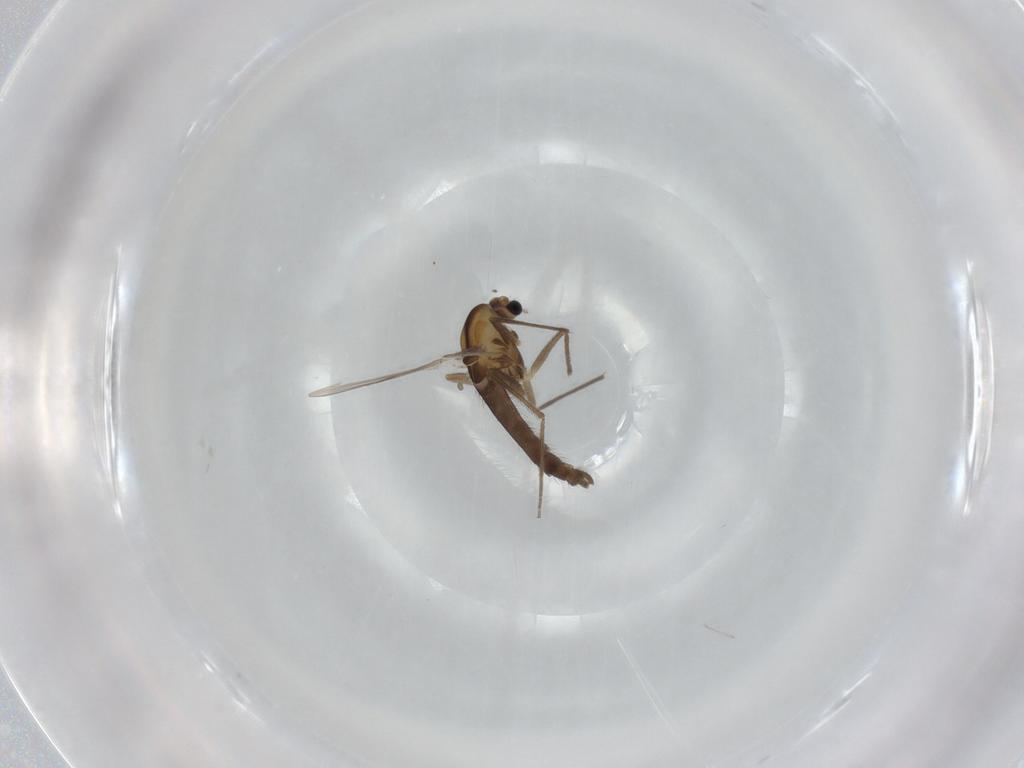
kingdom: Animalia
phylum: Arthropoda
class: Insecta
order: Diptera
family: Chironomidae
